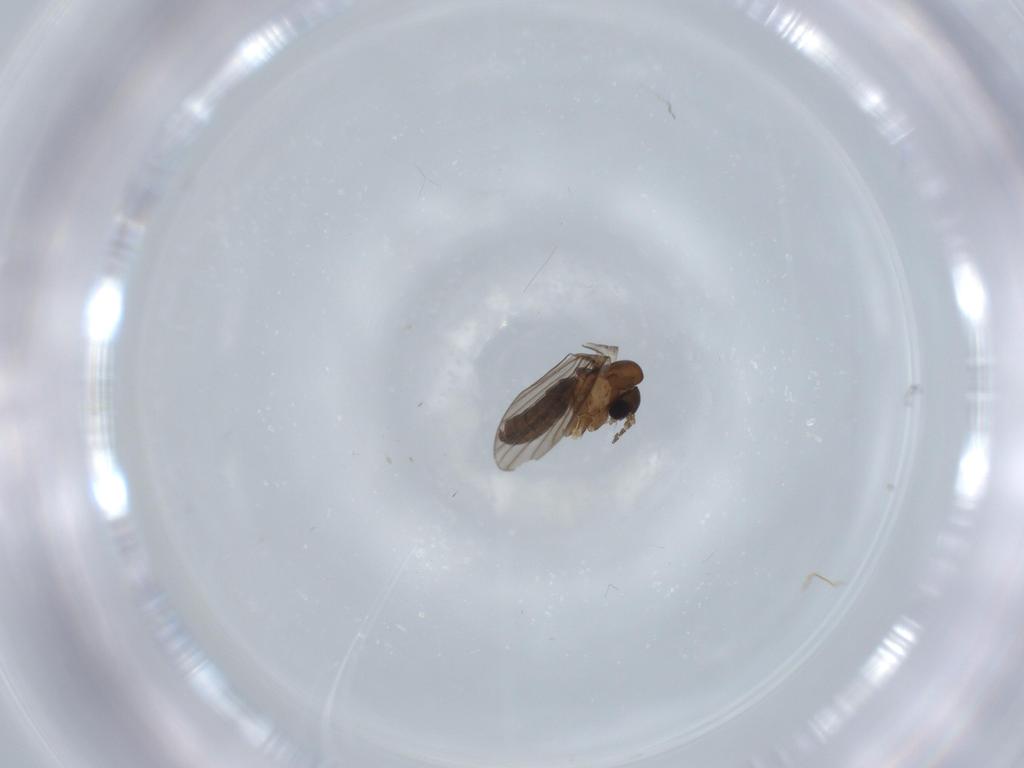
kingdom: Animalia
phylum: Arthropoda
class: Insecta
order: Diptera
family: Psychodidae
